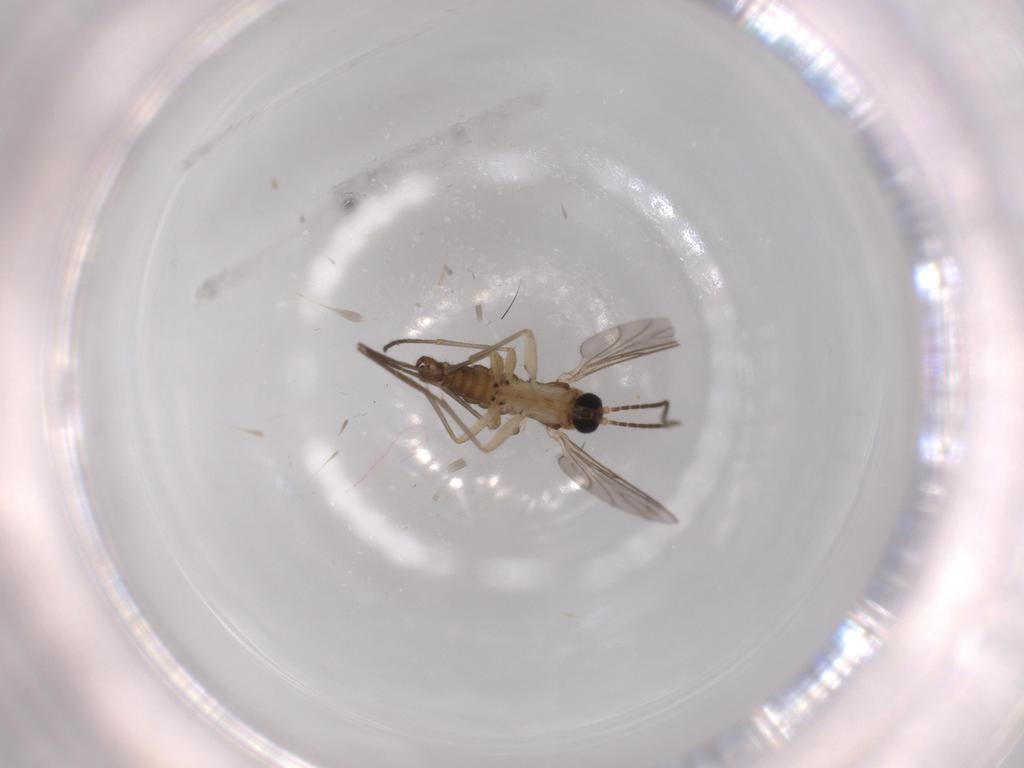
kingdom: Animalia
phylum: Arthropoda
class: Insecta
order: Diptera
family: Sciaridae
